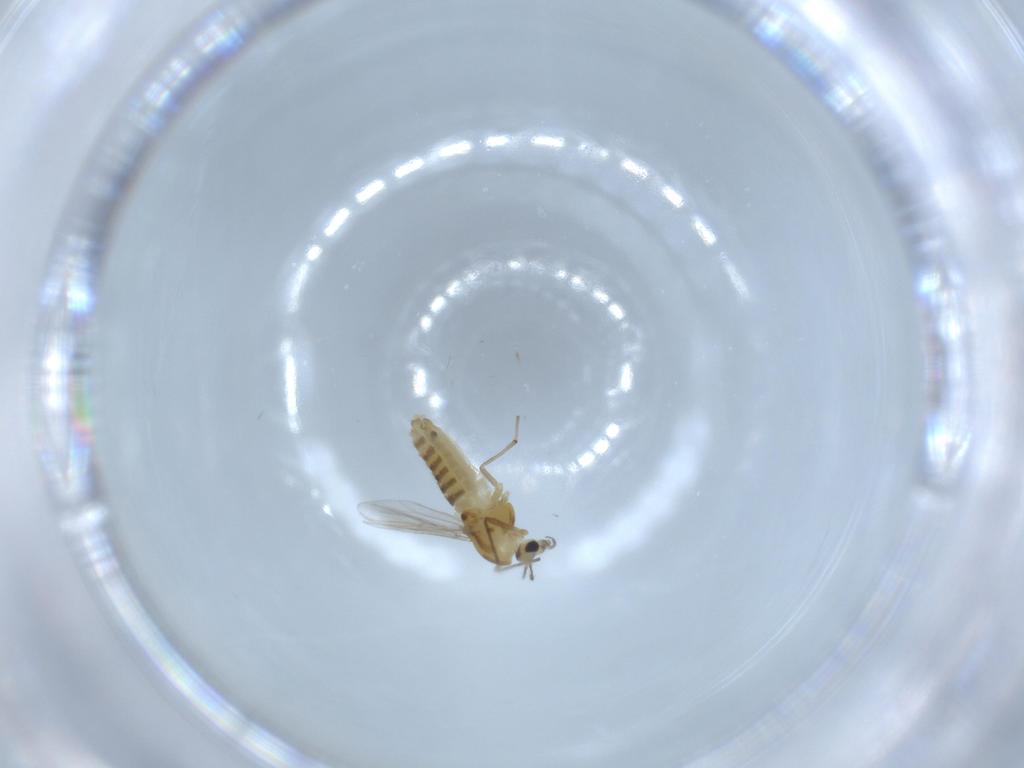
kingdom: Animalia
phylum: Arthropoda
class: Insecta
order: Diptera
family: Chironomidae
